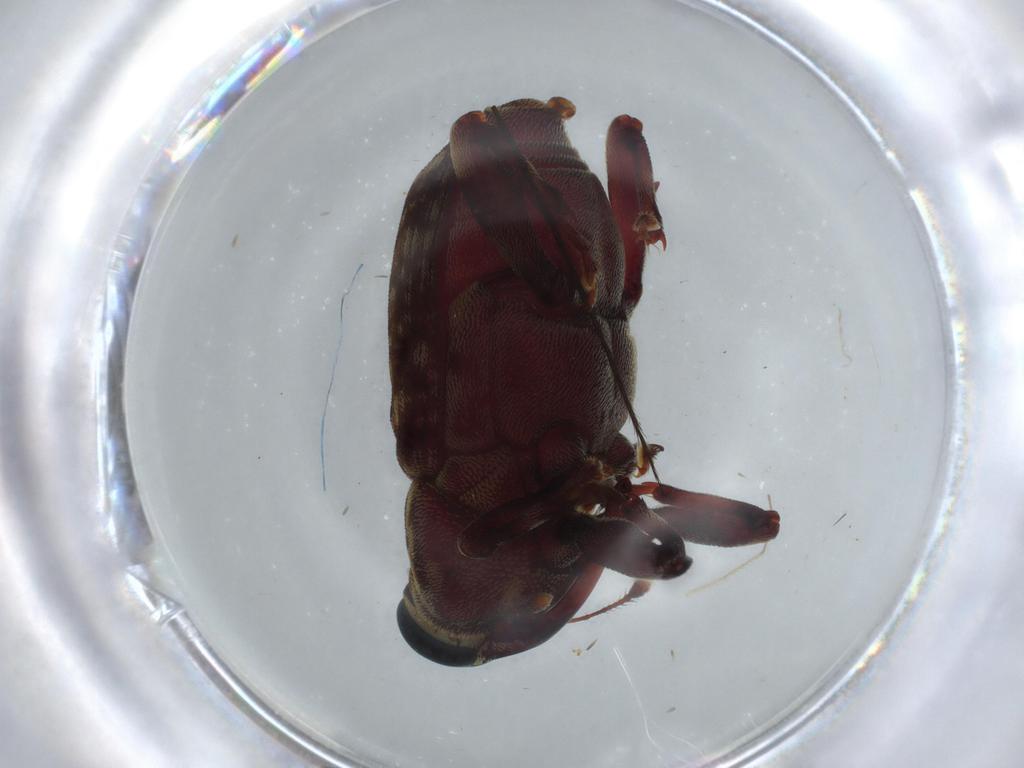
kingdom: Animalia
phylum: Arthropoda
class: Insecta
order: Coleoptera
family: Curculionidae
